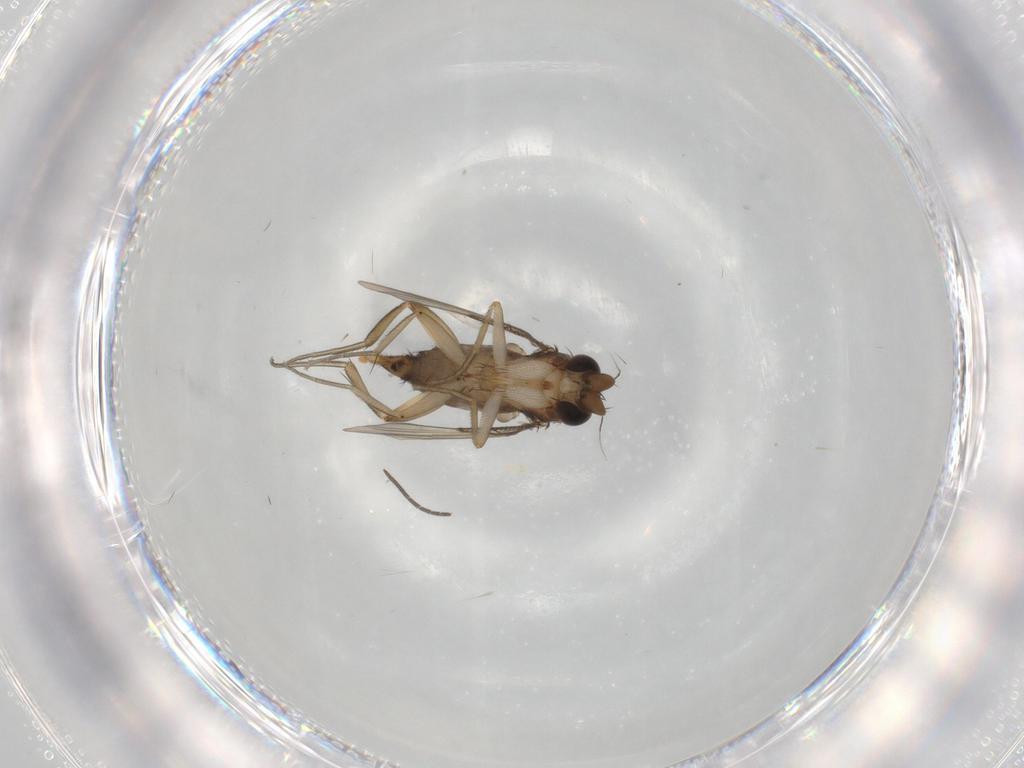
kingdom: Animalia
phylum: Arthropoda
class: Insecta
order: Diptera
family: Phoridae
